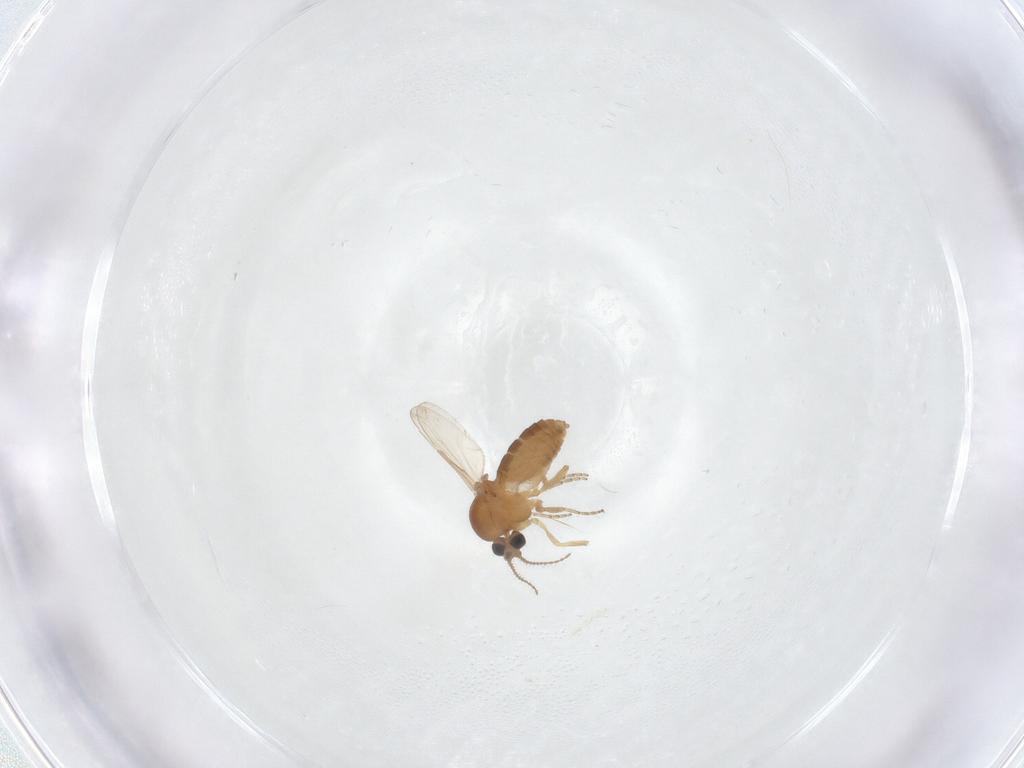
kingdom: Animalia
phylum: Arthropoda
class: Insecta
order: Diptera
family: Ceratopogonidae
